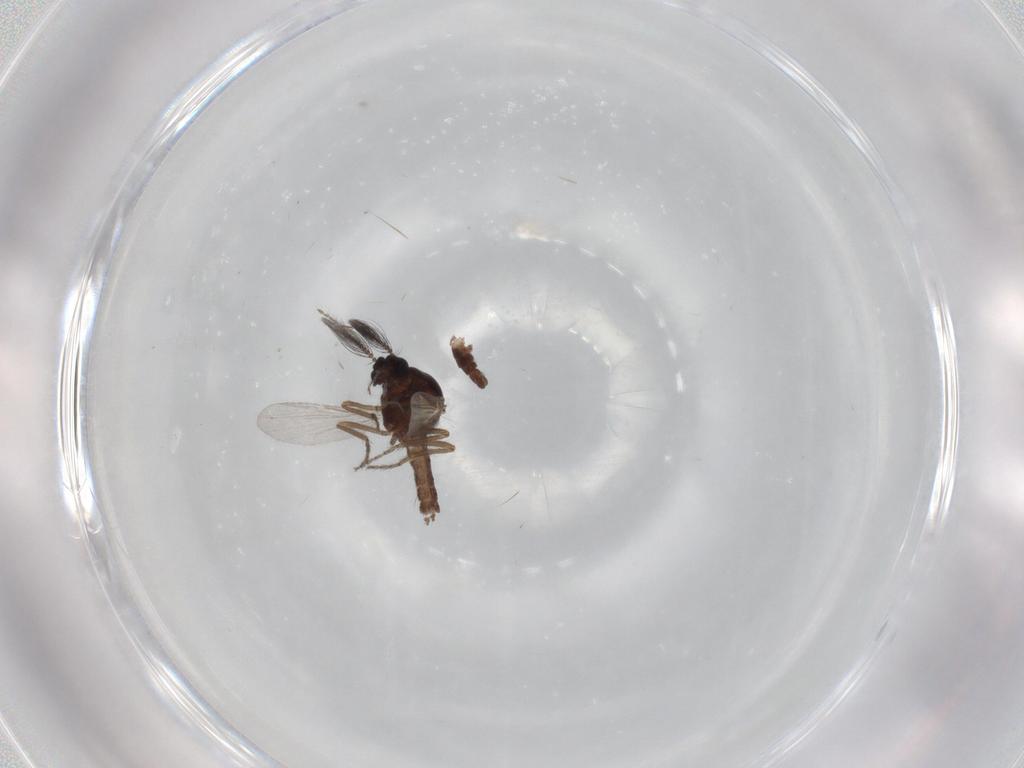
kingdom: Animalia
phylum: Arthropoda
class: Insecta
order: Diptera
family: Ceratopogonidae
